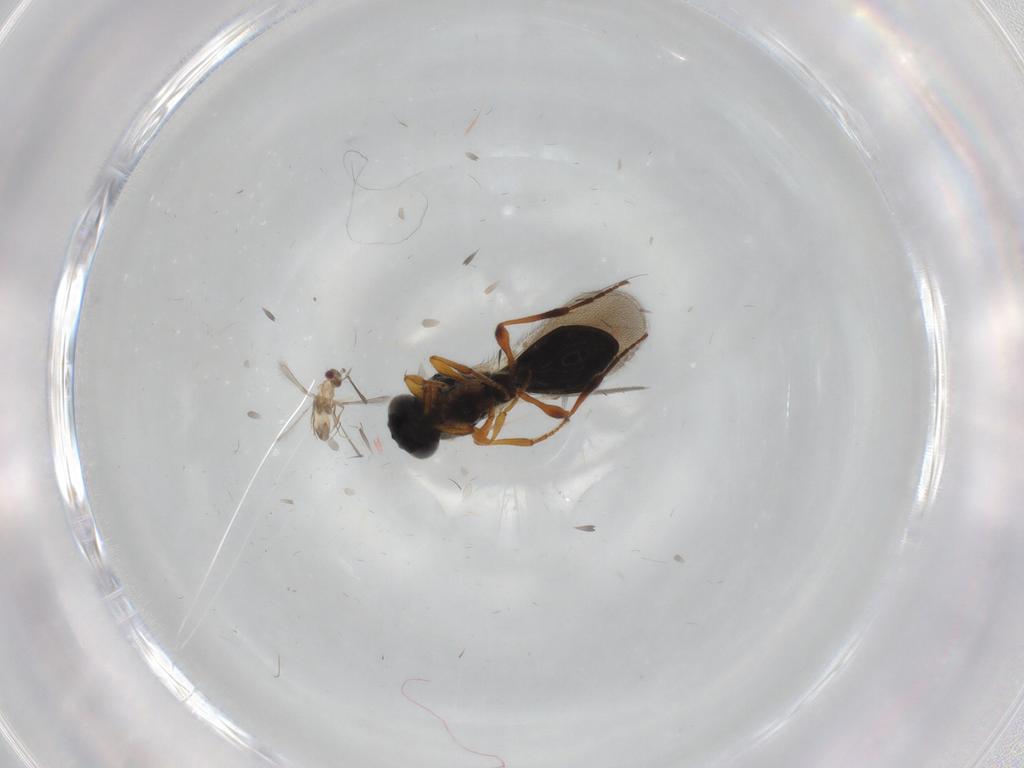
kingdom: Animalia
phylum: Arthropoda
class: Insecta
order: Hymenoptera
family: Platygastridae
